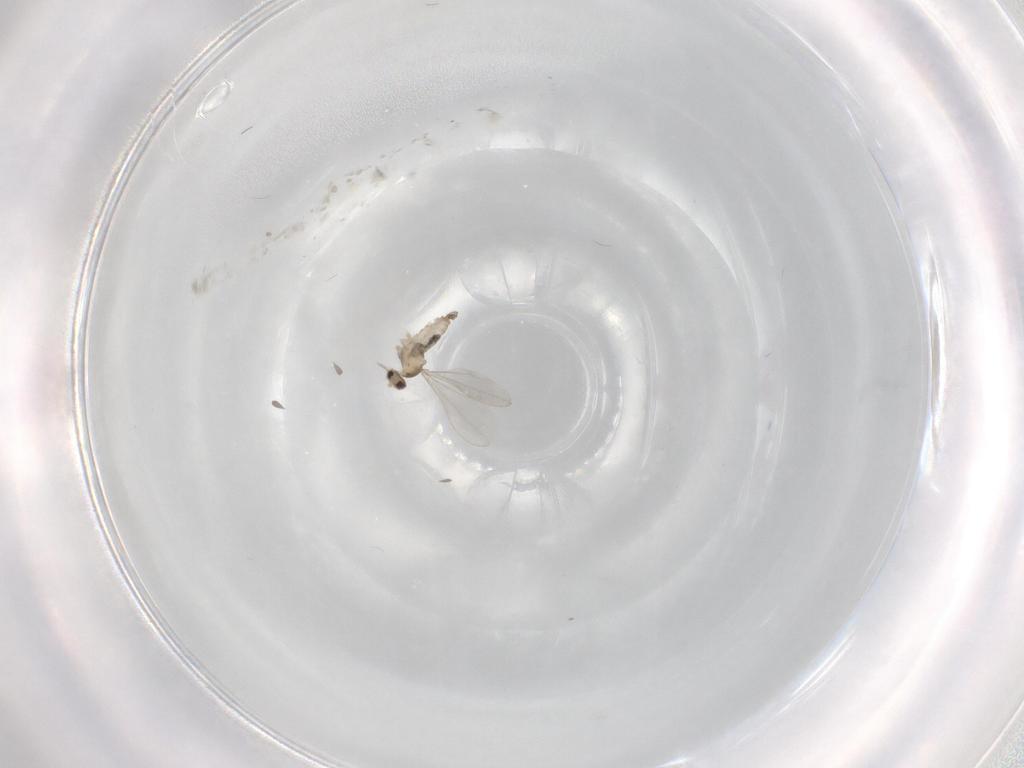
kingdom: Animalia
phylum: Arthropoda
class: Insecta
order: Diptera
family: Cecidomyiidae
